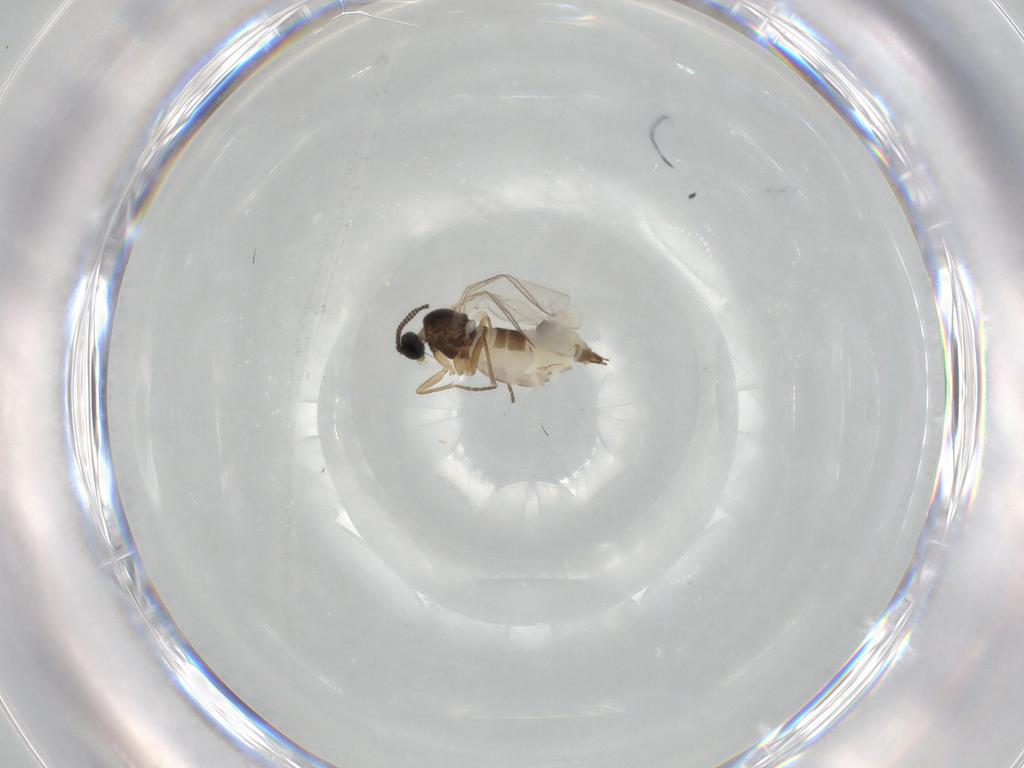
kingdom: Animalia
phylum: Arthropoda
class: Insecta
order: Diptera
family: Sciaridae
